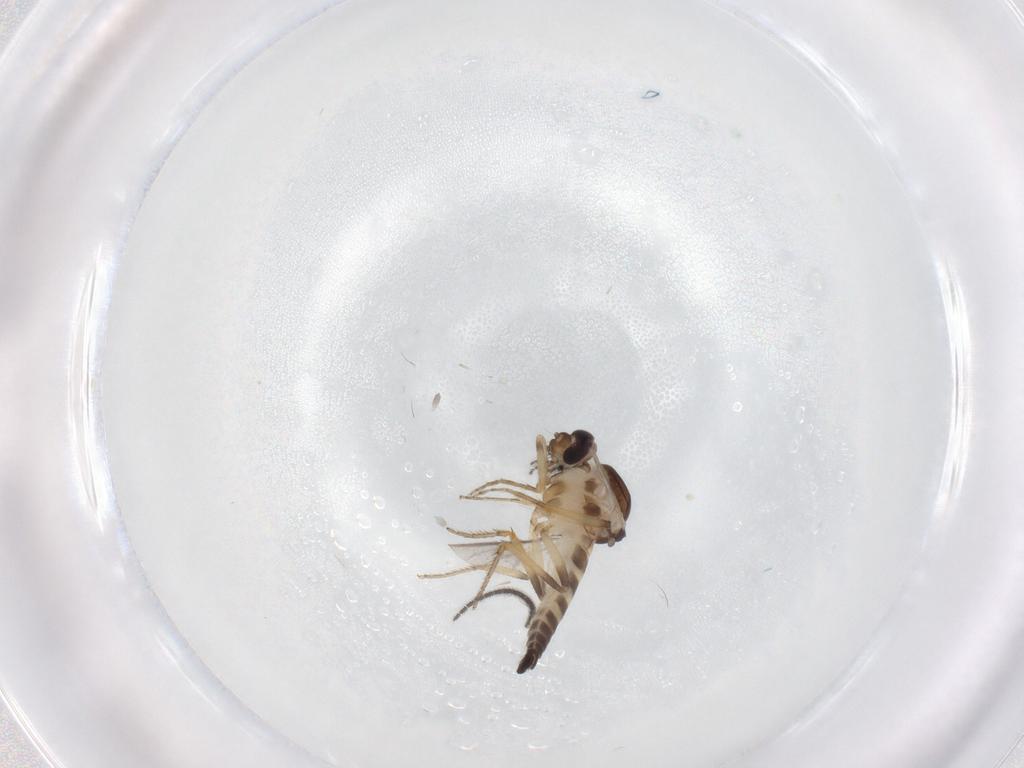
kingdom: Animalia
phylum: Arthropoda
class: Insecta
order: Diptera
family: Ceratopogonidae
